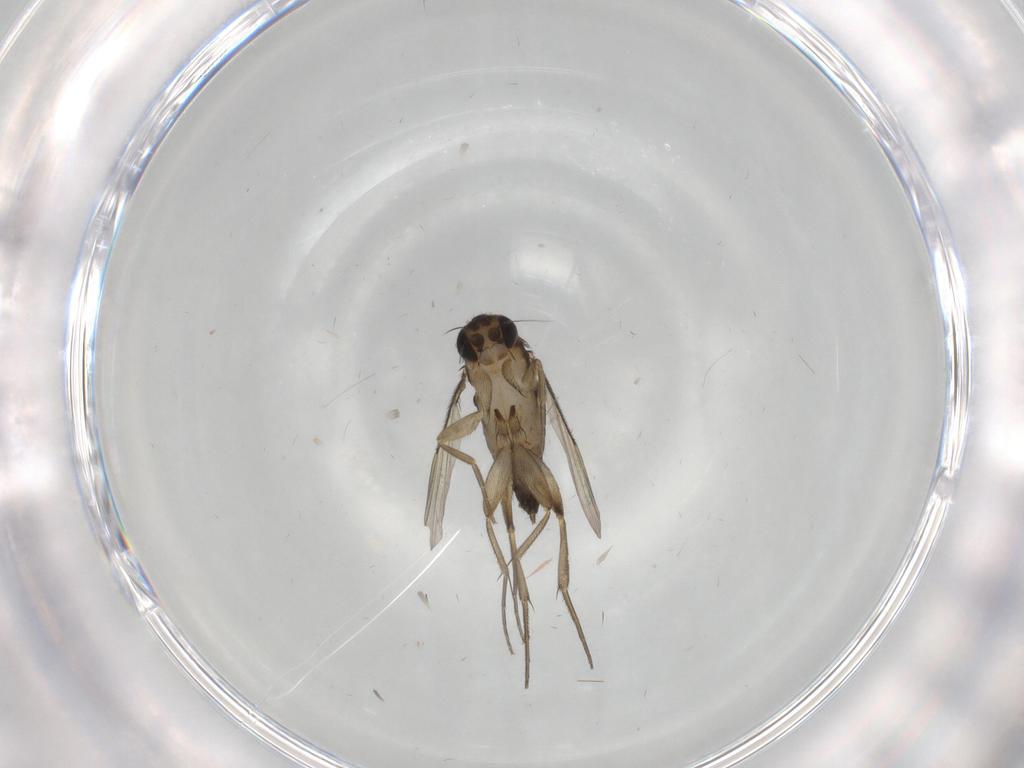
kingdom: Animalia
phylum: Arthropoda
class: Insecta
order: Diptera
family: Phoridae
